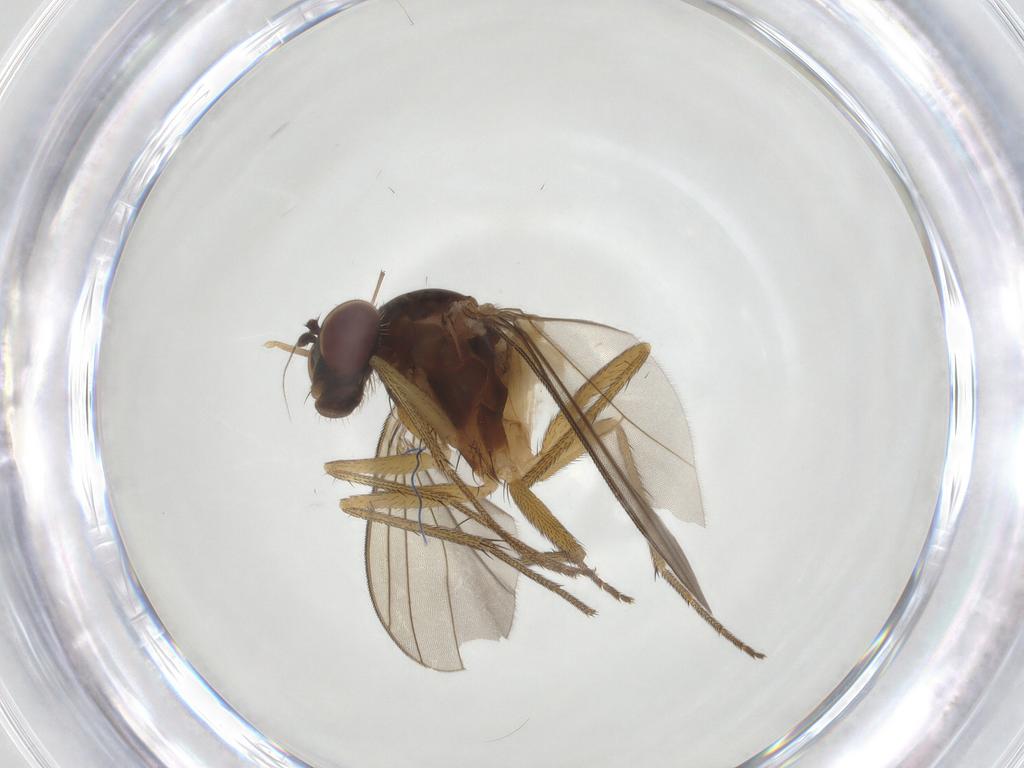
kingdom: Animalia
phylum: Arthropoda
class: Insecta
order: Diptera
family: Dolichopodidae
